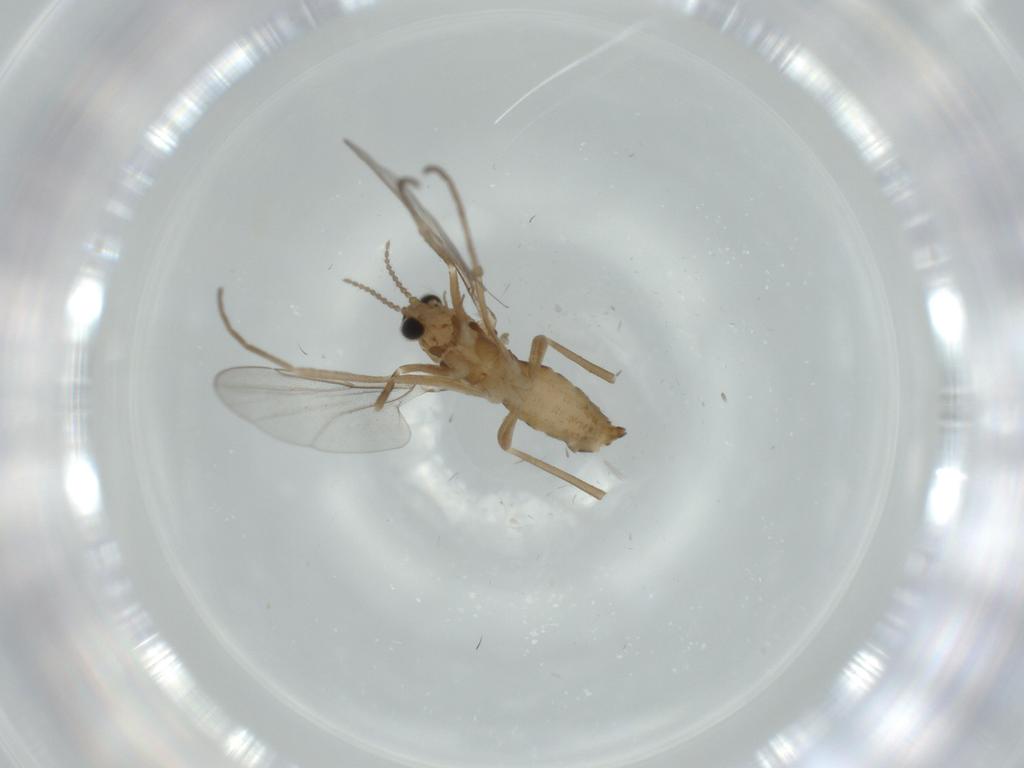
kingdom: Animalia
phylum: Arthropoda
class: Insecta
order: Diptera
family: Cecidomyiidae
